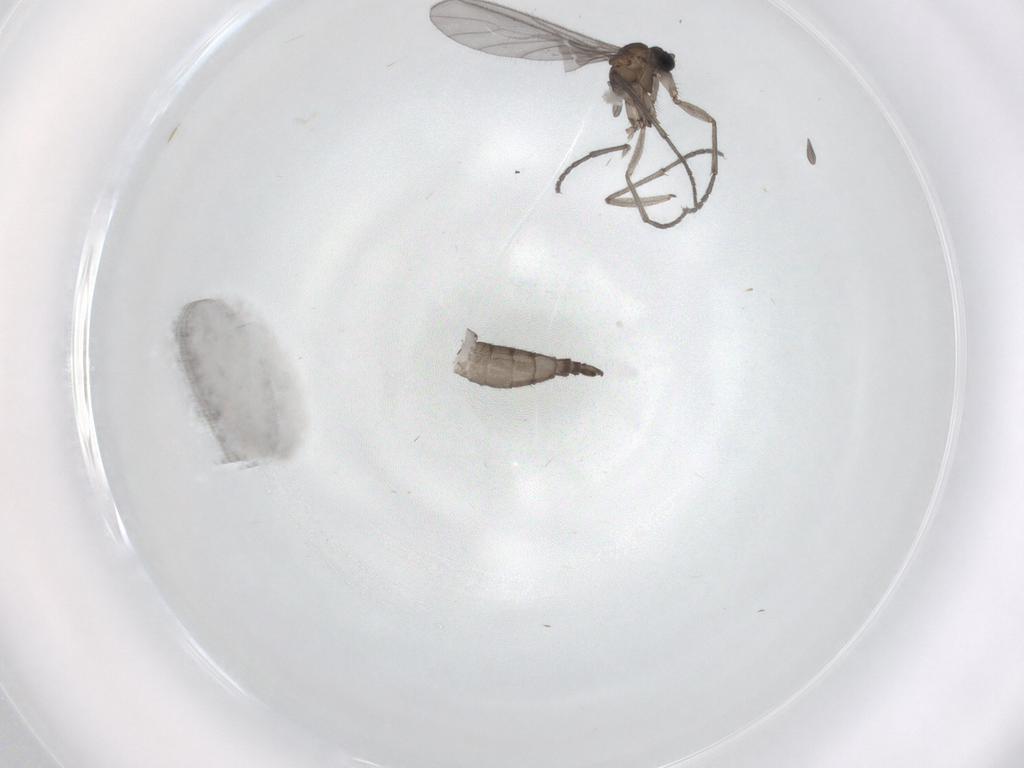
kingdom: Animalia
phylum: Arthropoda
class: Insecta
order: Diptera
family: Sciaridae
